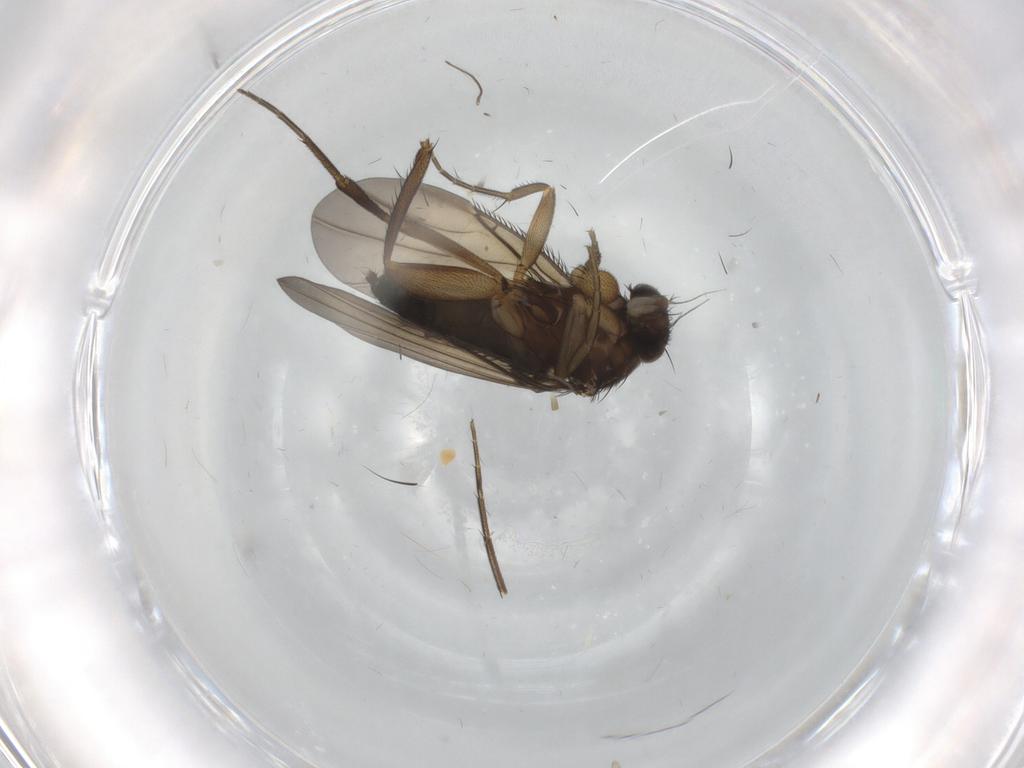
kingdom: Animalia
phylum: Arthropoda
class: Insecta
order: Diptera
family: Phoridae
